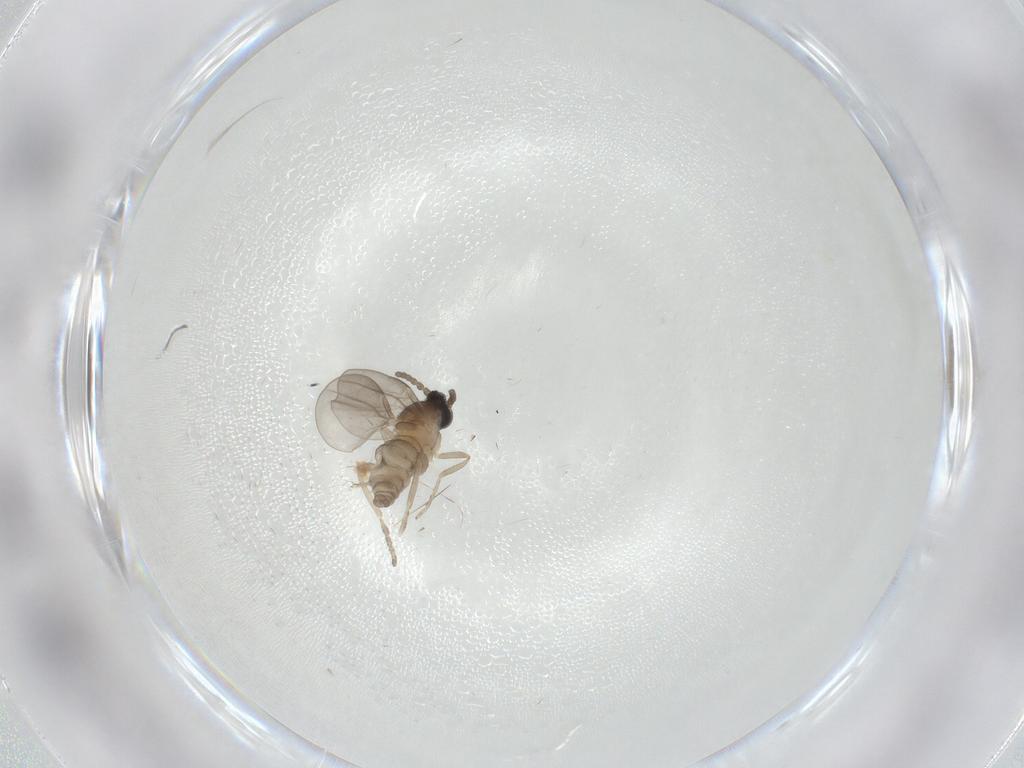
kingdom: Animalia
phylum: Arthropoda
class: Insecta
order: Diptera
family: Cecidomyiidae
